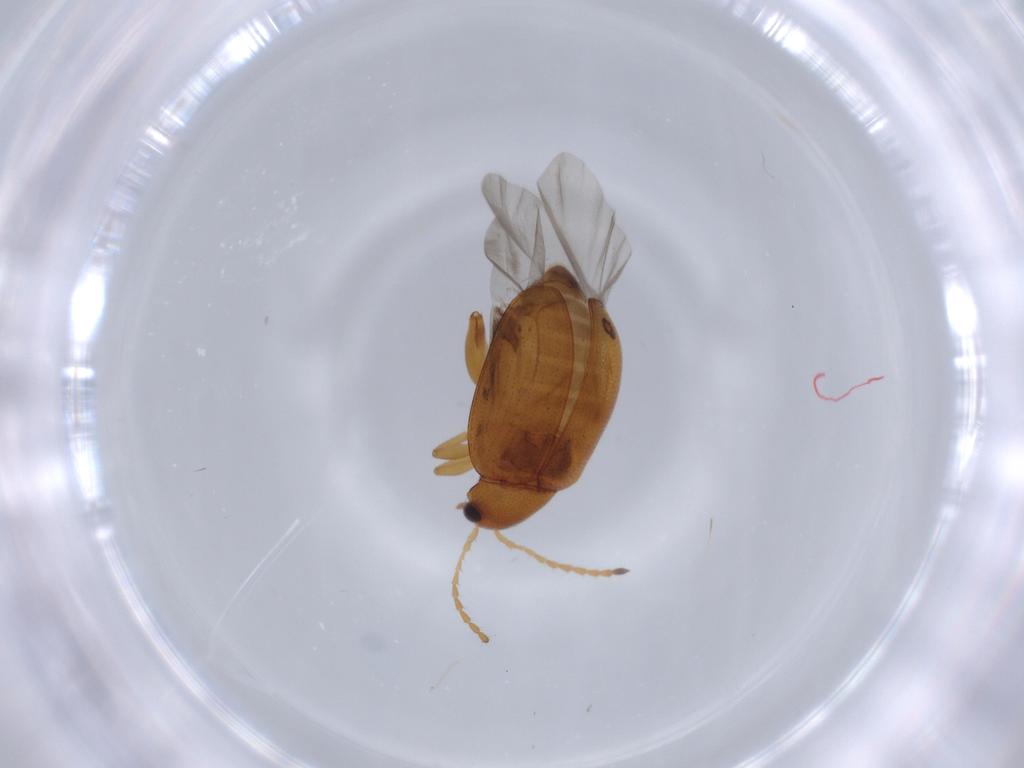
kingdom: Animalia
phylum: Arthropoda
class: Insecta
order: Coleoptera
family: Chrysomelidae
